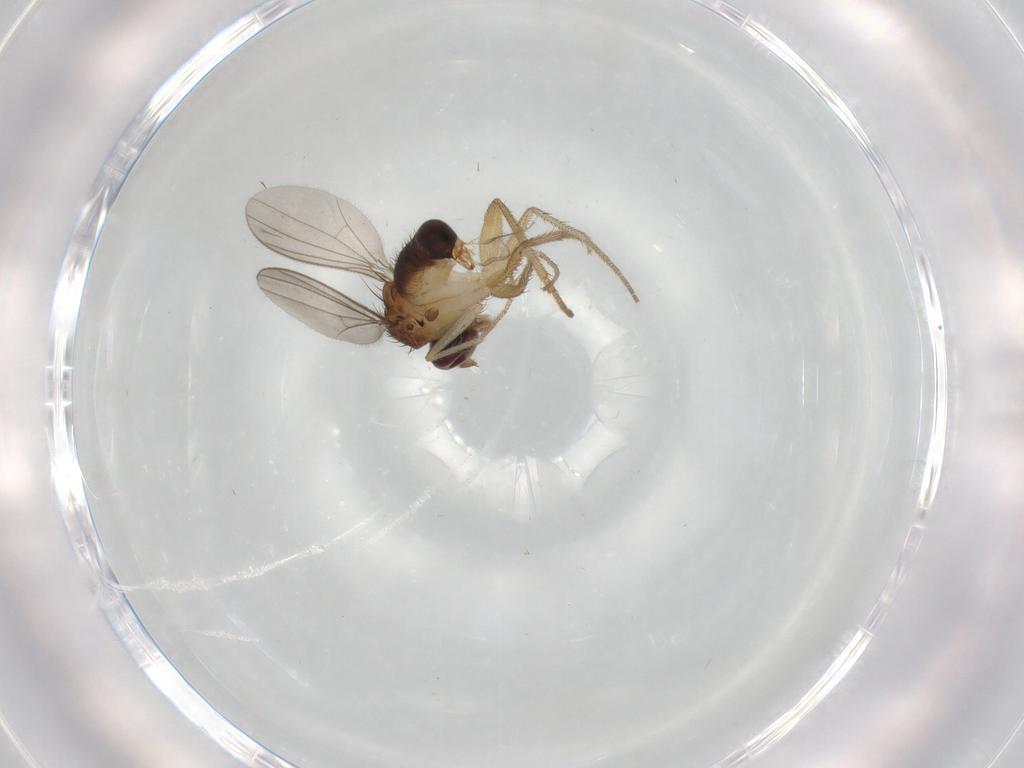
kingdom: Animalia
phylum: Arthropoda
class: Insecta
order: Diptera
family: Dolichopodidae
